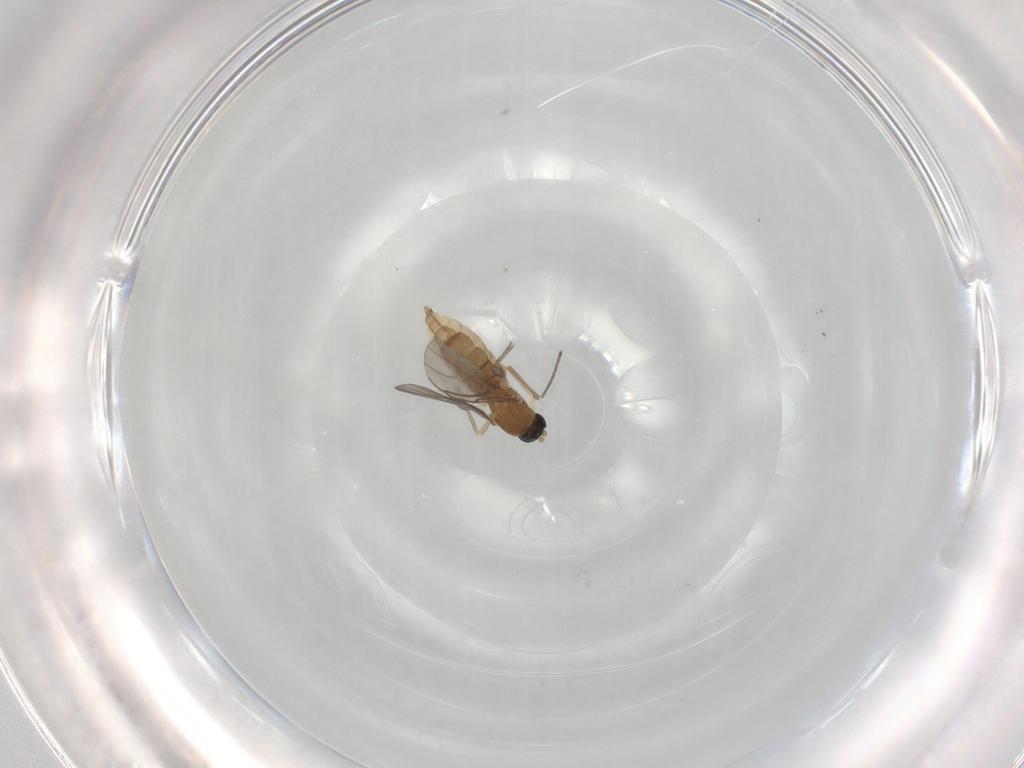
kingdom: Animalia
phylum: Arthropoda
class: Insecta
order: Diptera
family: Sciaridae
